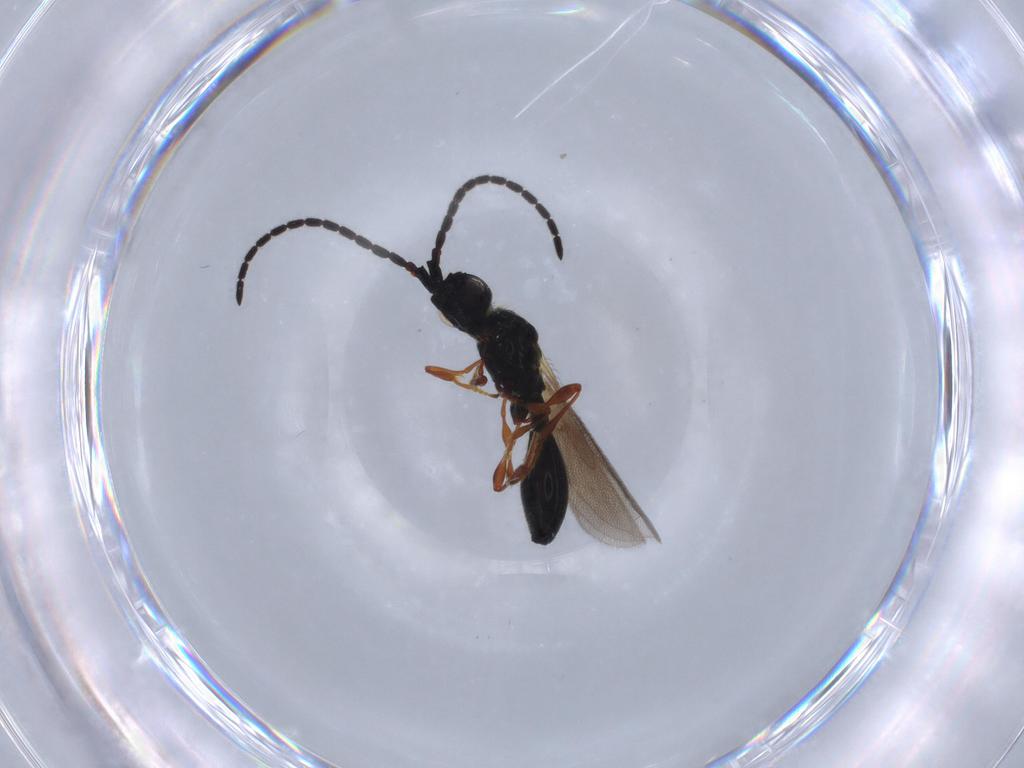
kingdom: Animalia
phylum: Arthropoda
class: Insecta
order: Hymenoptera
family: Diapriidae
